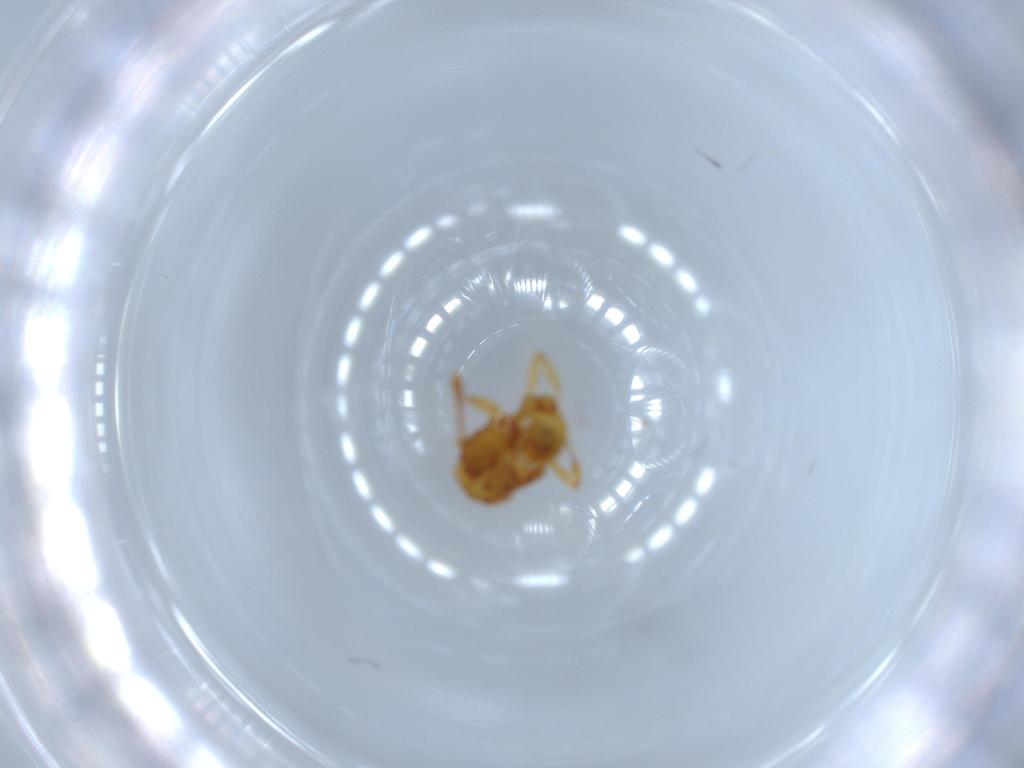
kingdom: Animalia
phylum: Arthropoda
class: Insecta
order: Hymenoptera
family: Formicidae
